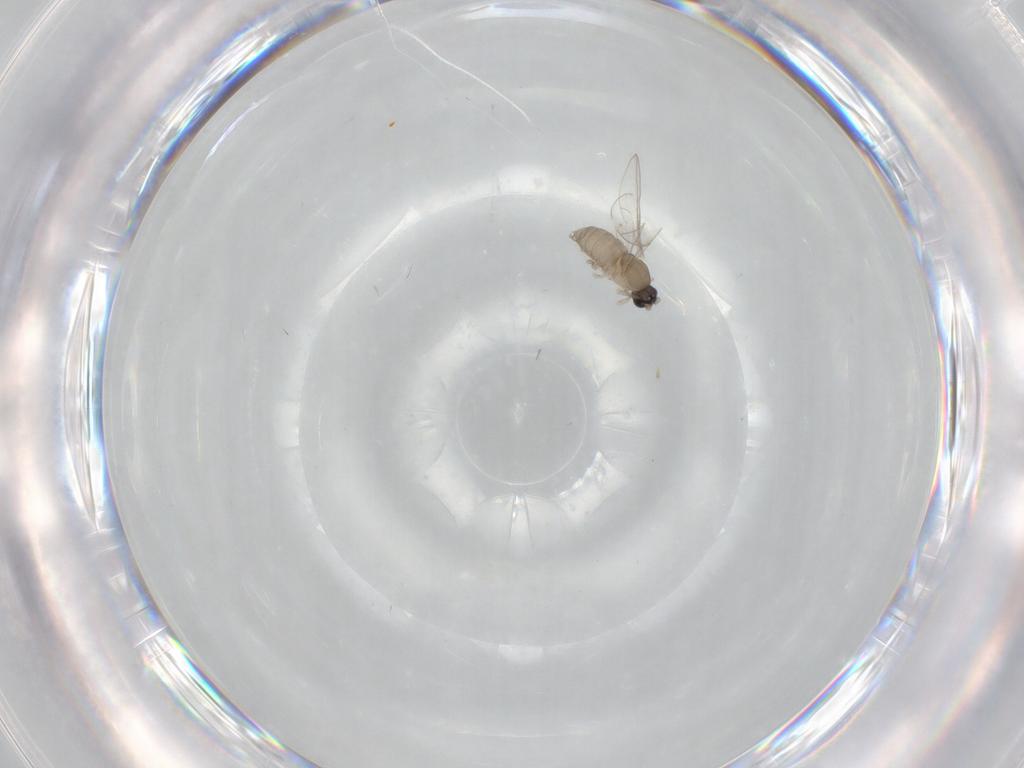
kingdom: Animalia
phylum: Arthropoda
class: Insecta
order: Diptera
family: Cecidomyiidae
